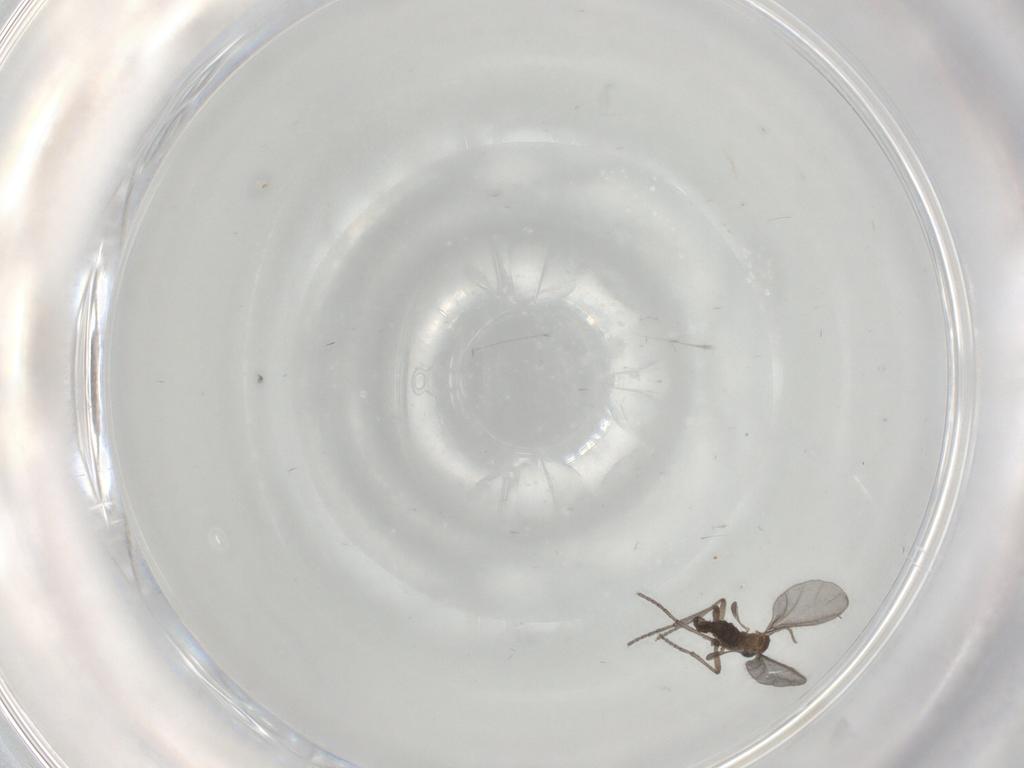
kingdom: Animalia
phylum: Arthropoda
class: Insecta
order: Diptera
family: Sciaridae
